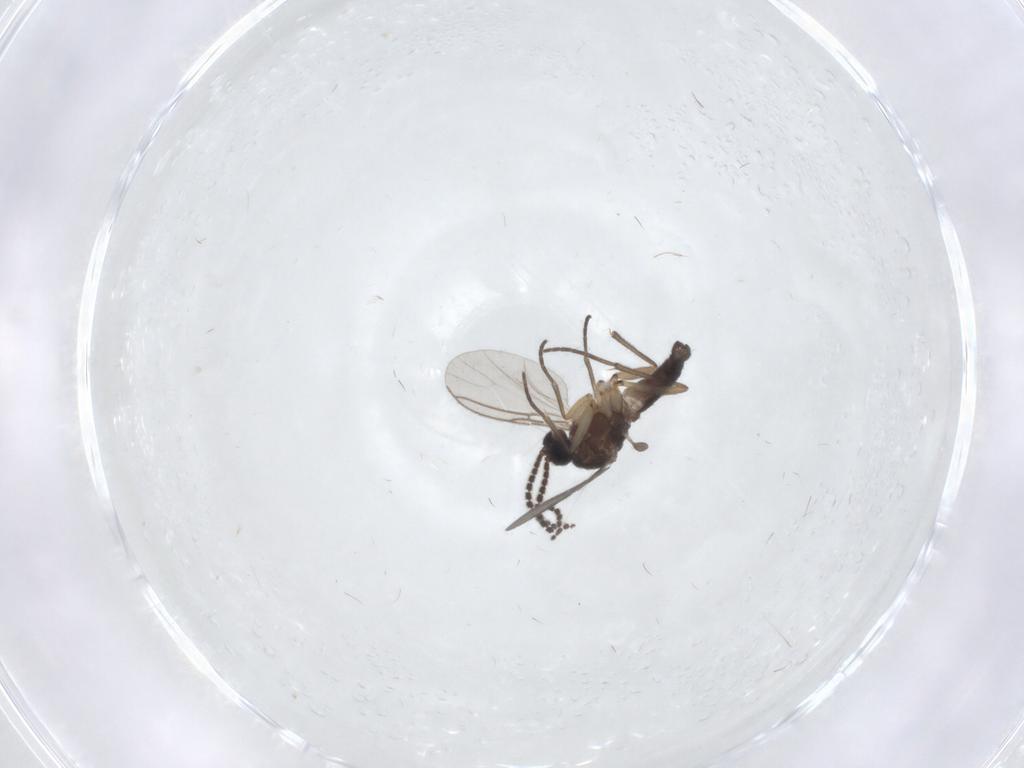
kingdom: Animalia
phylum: Arthropoda
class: Insecta
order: Diptera
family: Sciaridae
